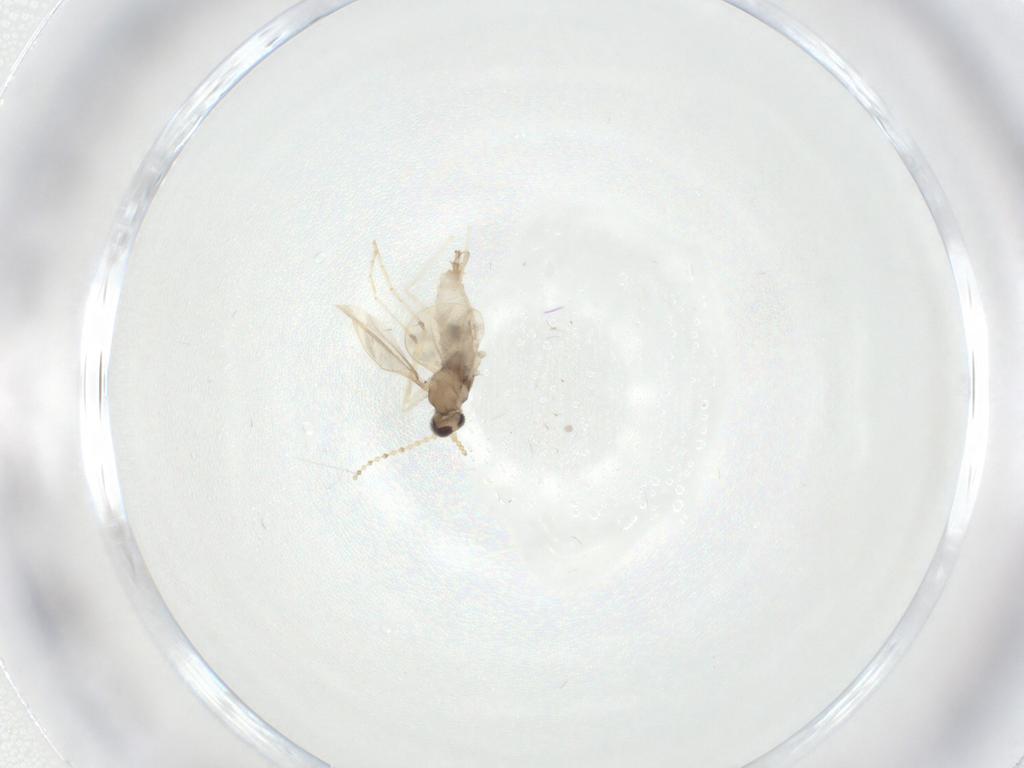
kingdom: Animalia
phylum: Arthropoda
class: Insecta
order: Diptera
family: Cecidomyiidae
